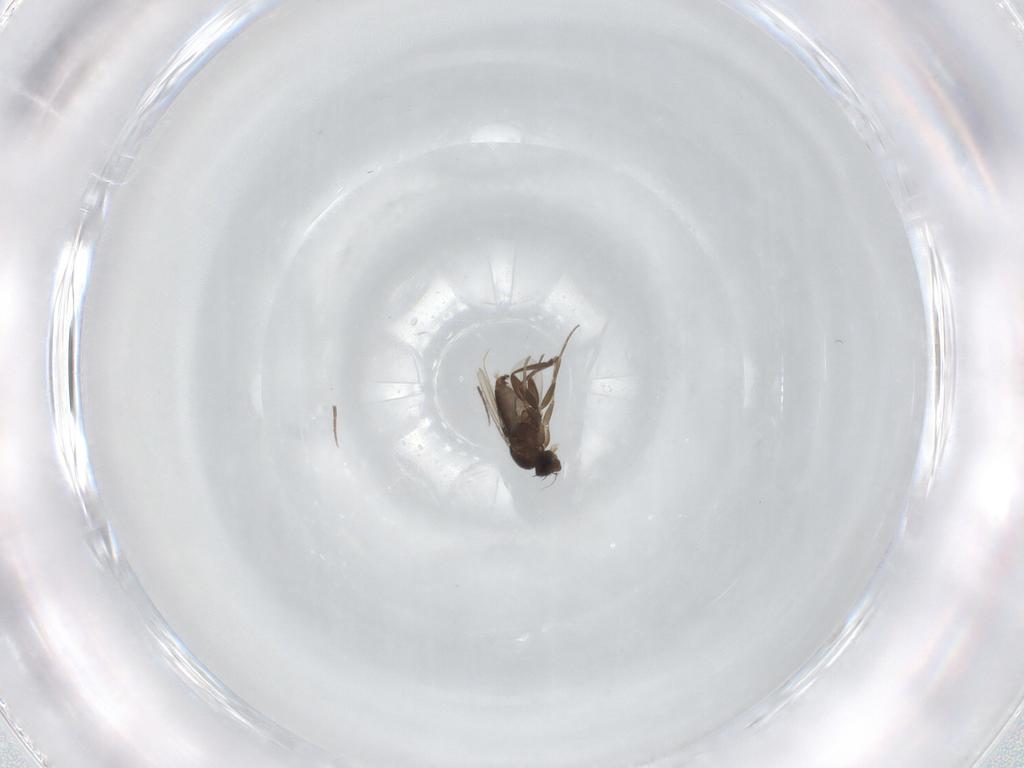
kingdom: Animalia
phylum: Arthropoda
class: Insecta
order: Diptera
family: Phoridae
